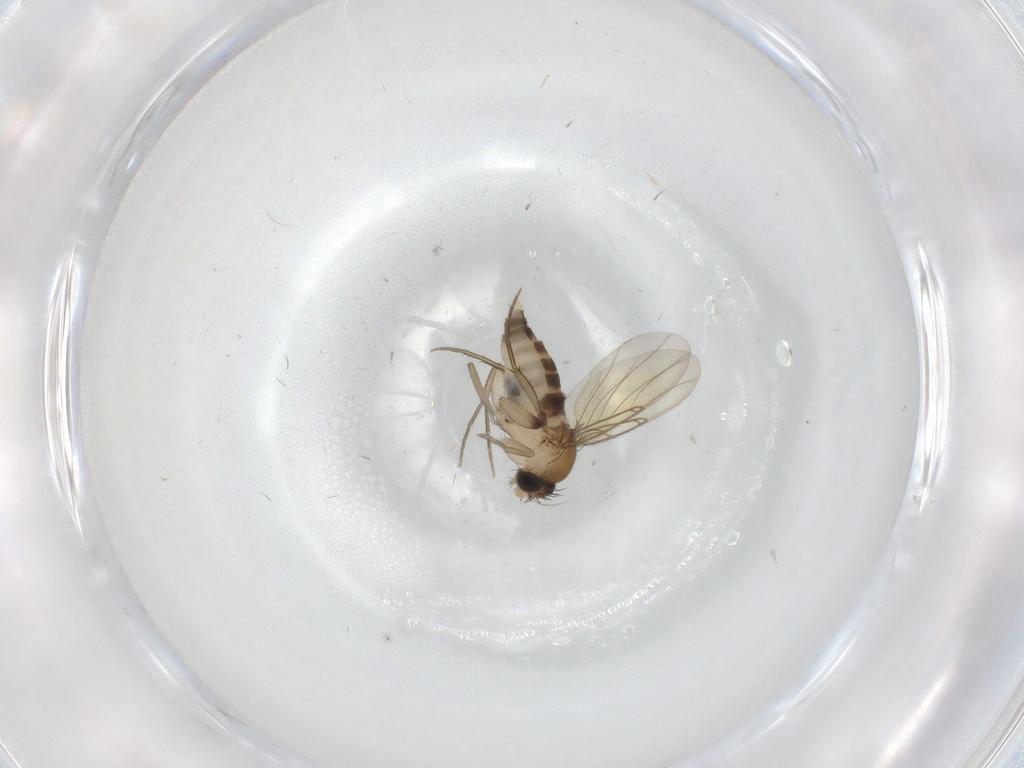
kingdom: Animalia
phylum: Arthropoda
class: Insecta
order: Diptera
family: Phoridae
